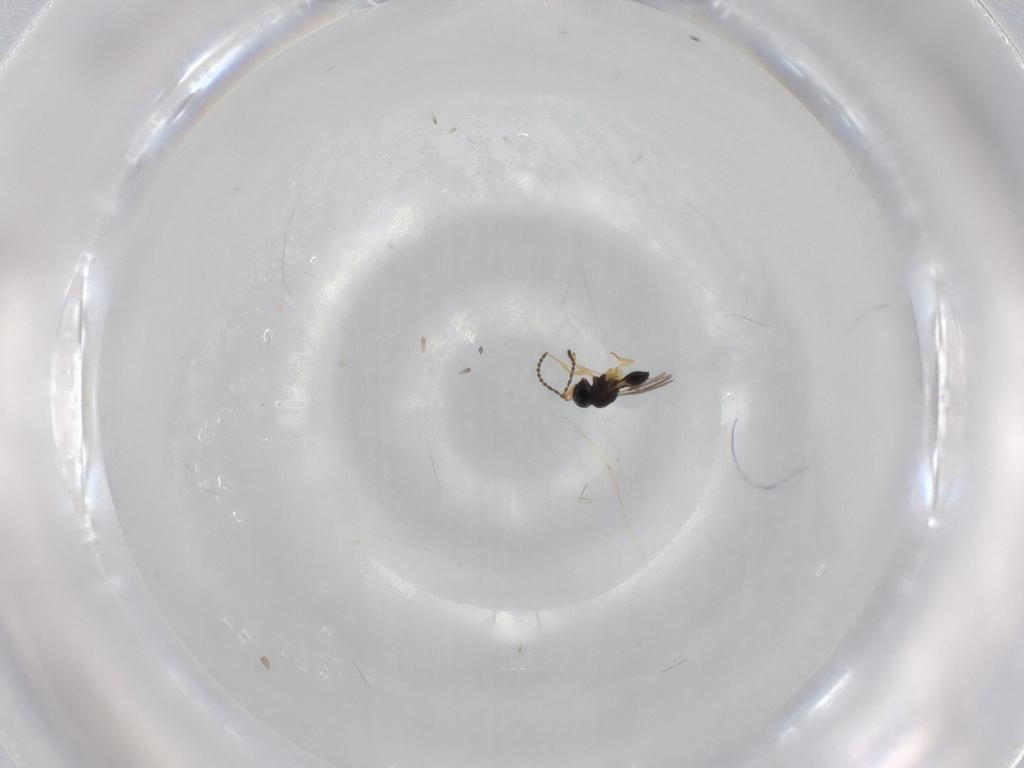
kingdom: Animalia
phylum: Arthropoda
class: Insecta
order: Hymenoptera
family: Scelionidae
